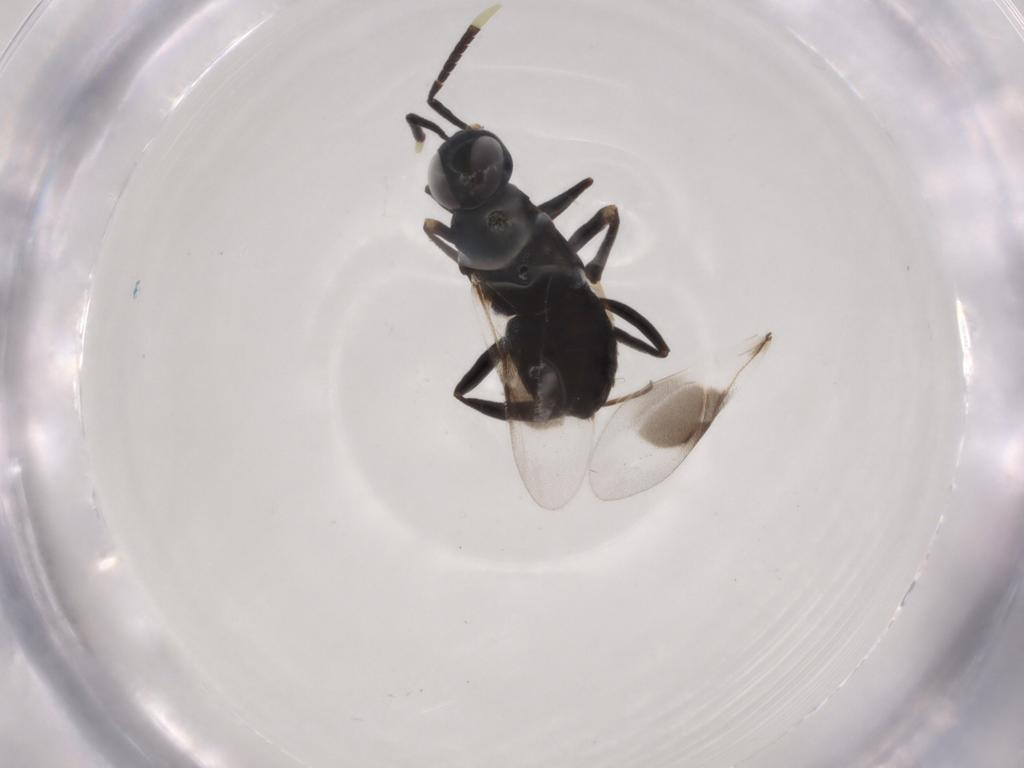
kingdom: Animalia
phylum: Arthropoda
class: Insecta
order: Hymenoptera
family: Encyrtidae
